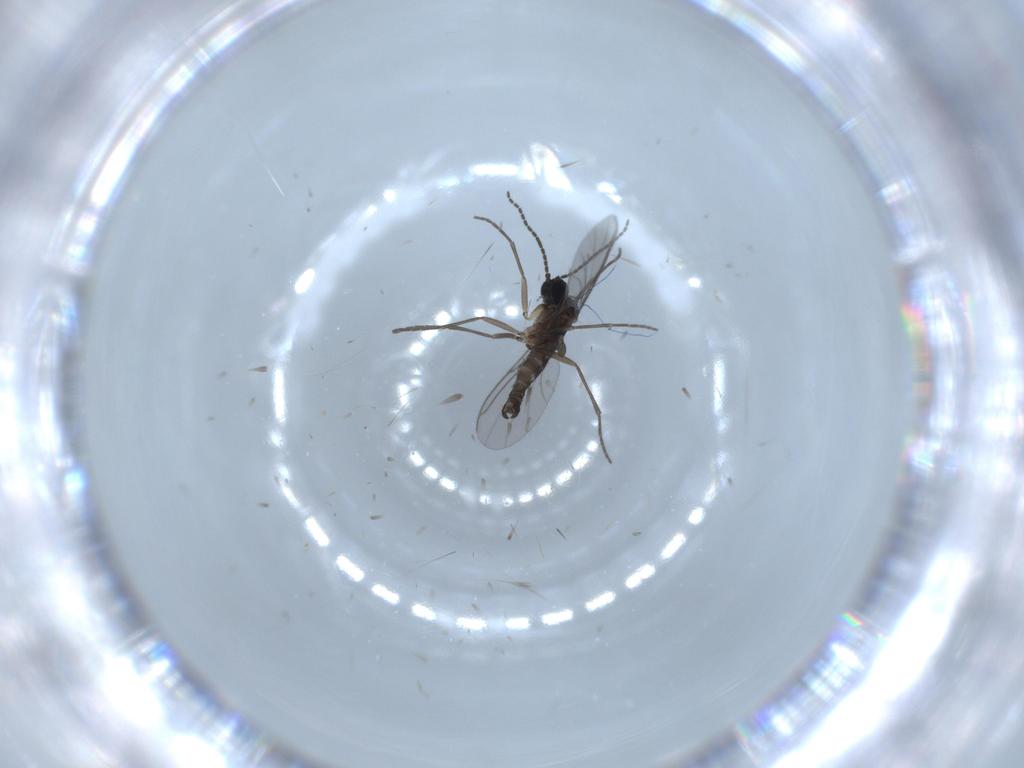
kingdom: Animalia
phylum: Arthropoda
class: Insecta
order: Diptera
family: Sciaridae
